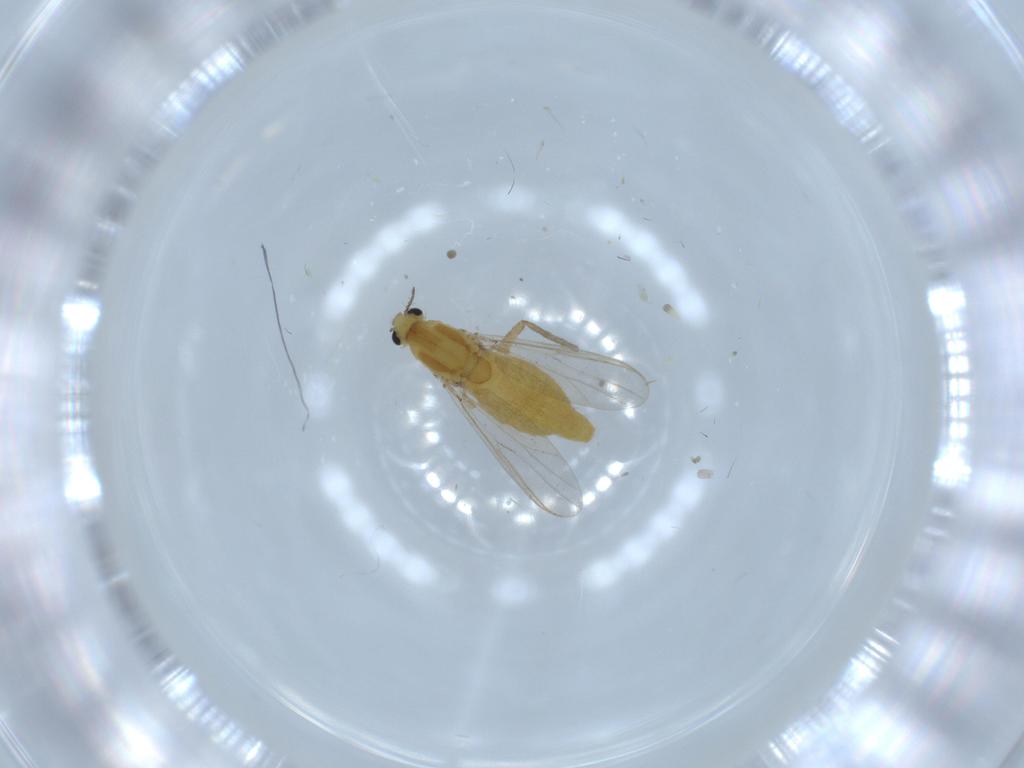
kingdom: Animalia
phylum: Arthropoda
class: Insecta
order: Diptera
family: Chironomidae
